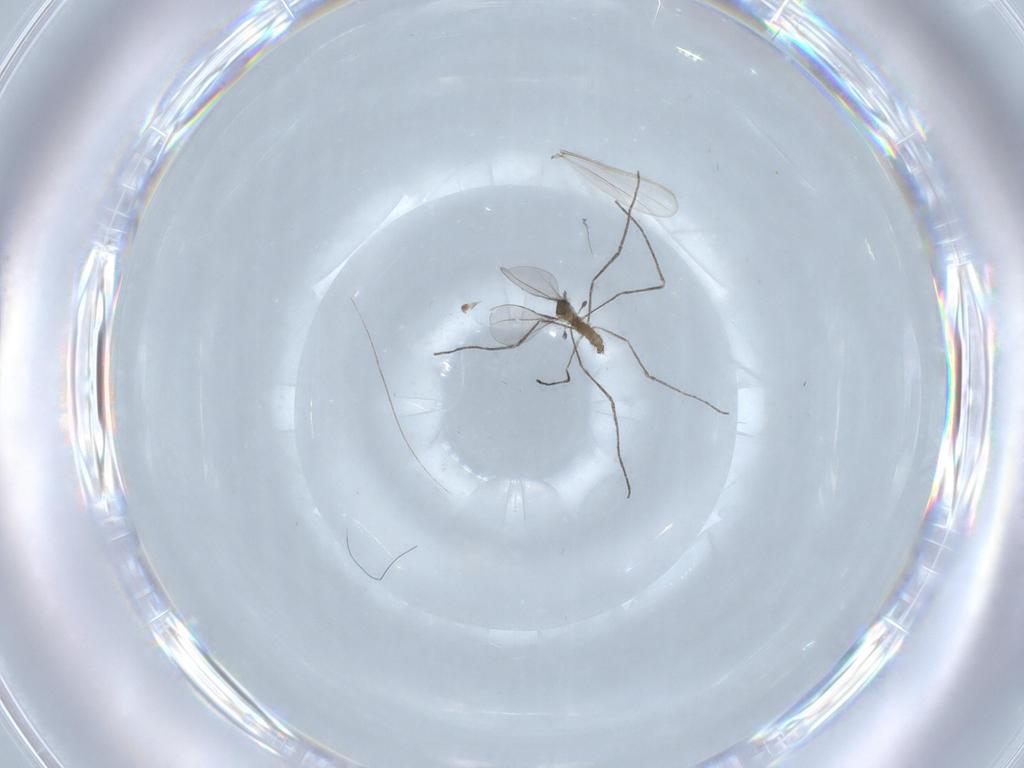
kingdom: Animalia
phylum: Arthropoda
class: Insecta
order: Diptera
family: Chironomidae
